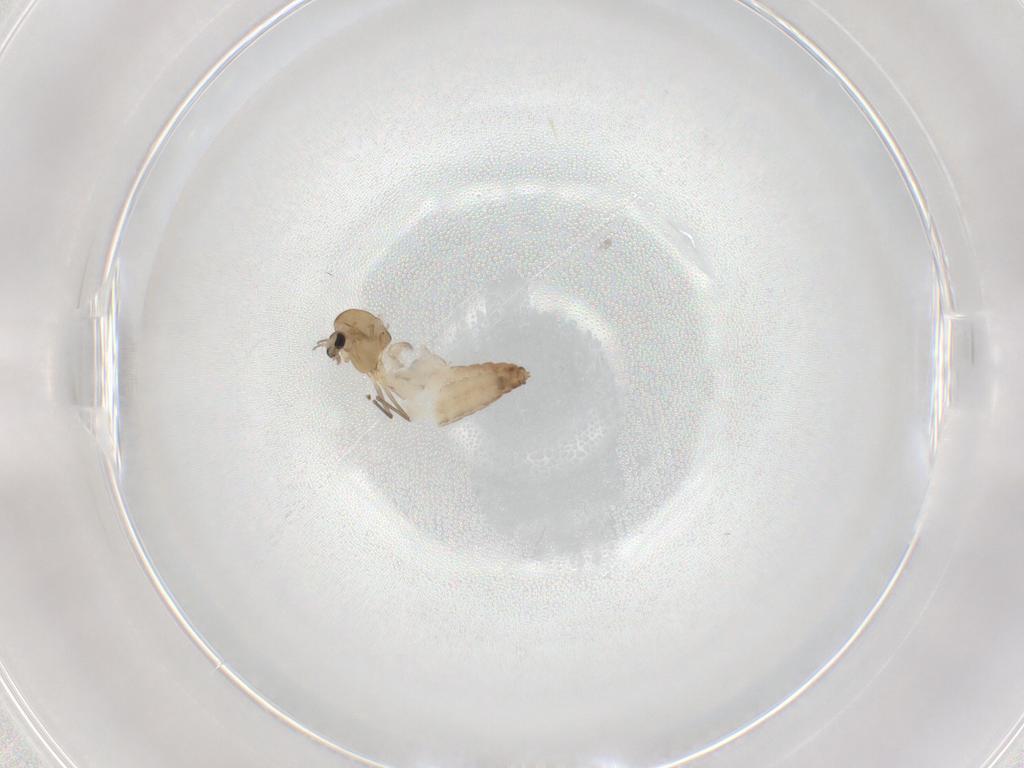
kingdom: Animalia
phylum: Arthropoda
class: Insecta
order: Diptera
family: Chironomidae
